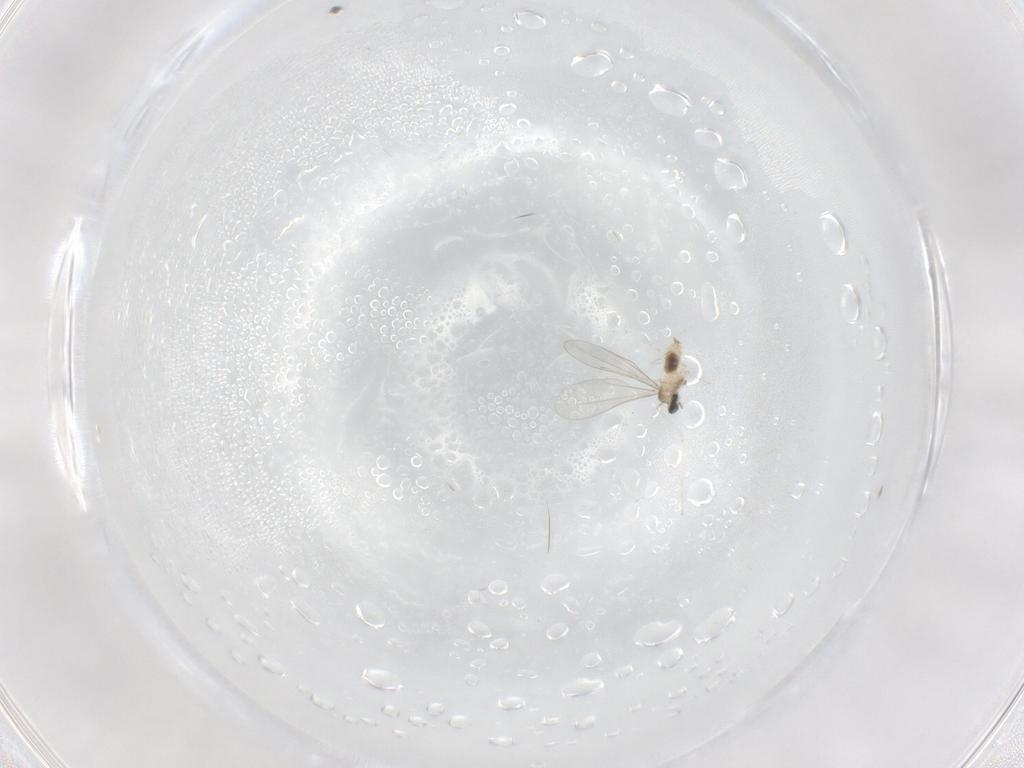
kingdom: Animalia
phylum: Arthropoda
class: Insecta
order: Diptera
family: Cecidomyiidae
